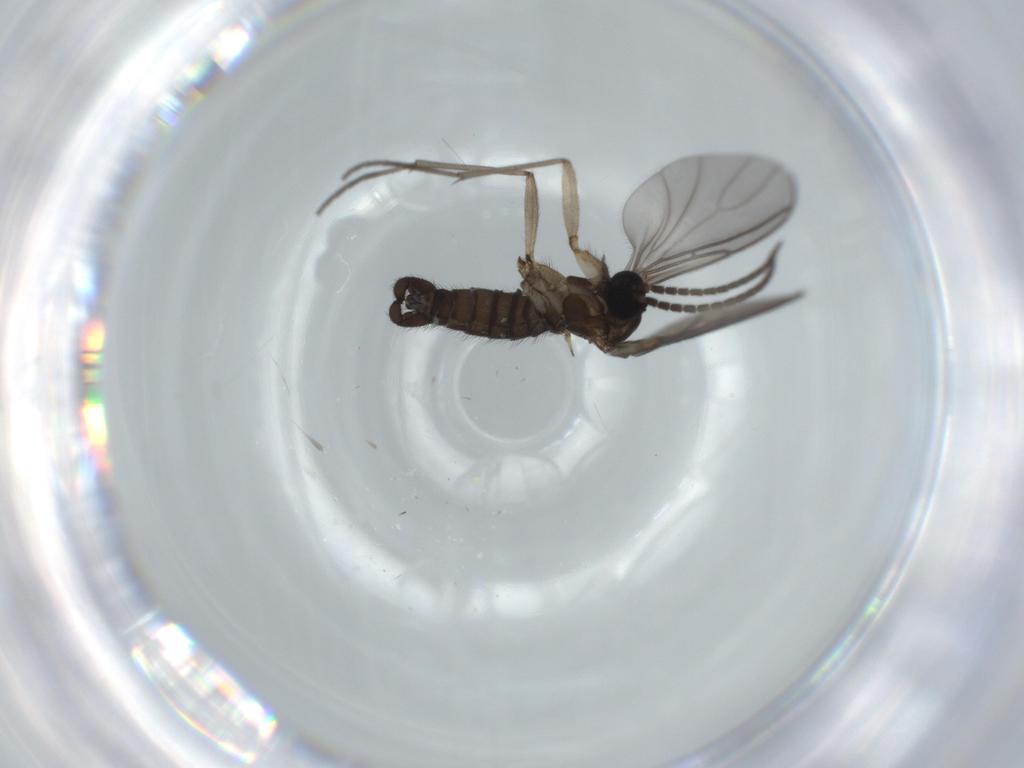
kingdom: Animalia
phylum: Arthropoda
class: Insecta
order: Diptera
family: Sciaridae
